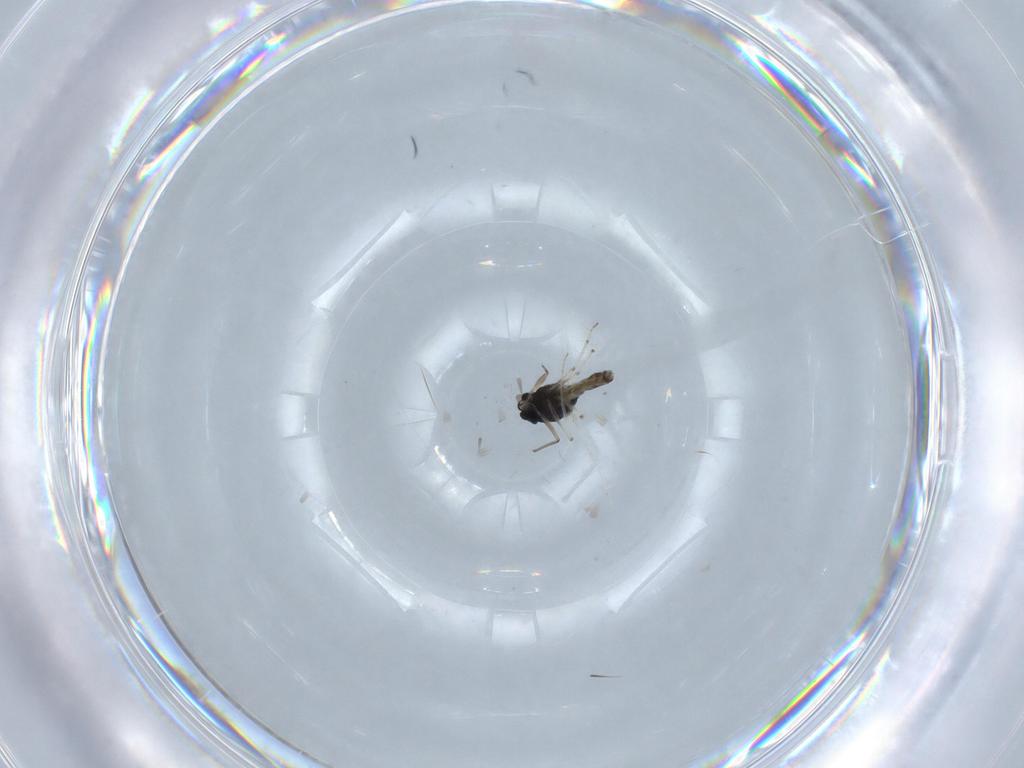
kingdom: Animalia
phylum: Arthropoda
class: Insecta
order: Diptera
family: Chironomidae
